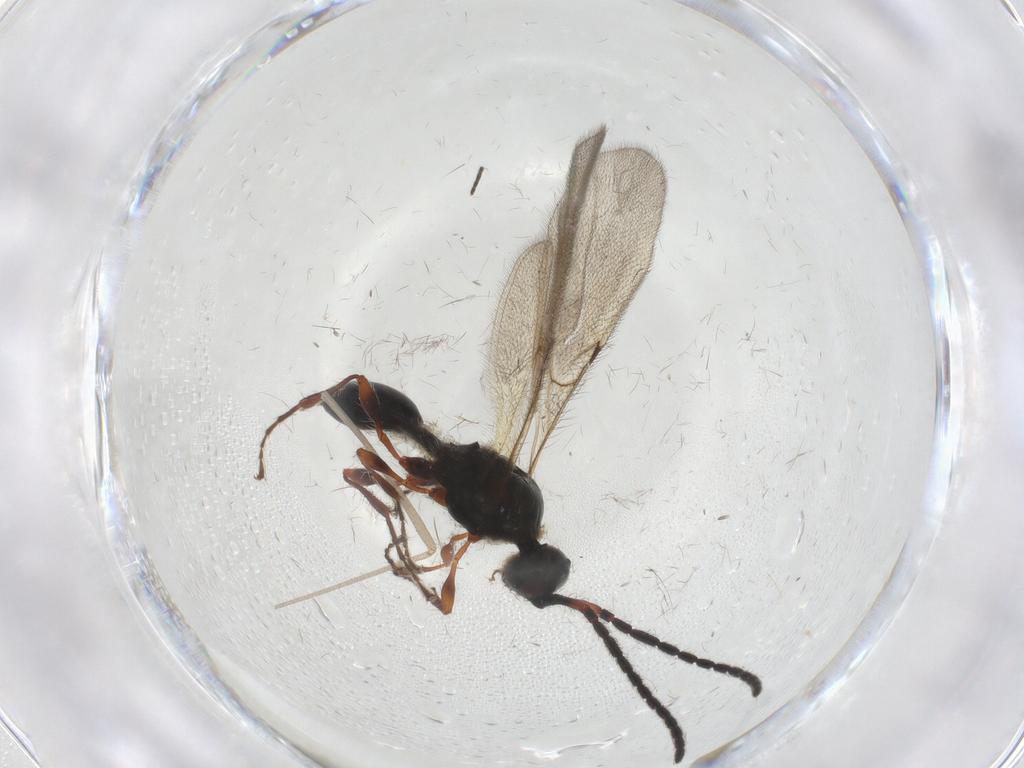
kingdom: Animalia
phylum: Arthropoda
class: Insecta
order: Hymenoptera
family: Diapriidae
